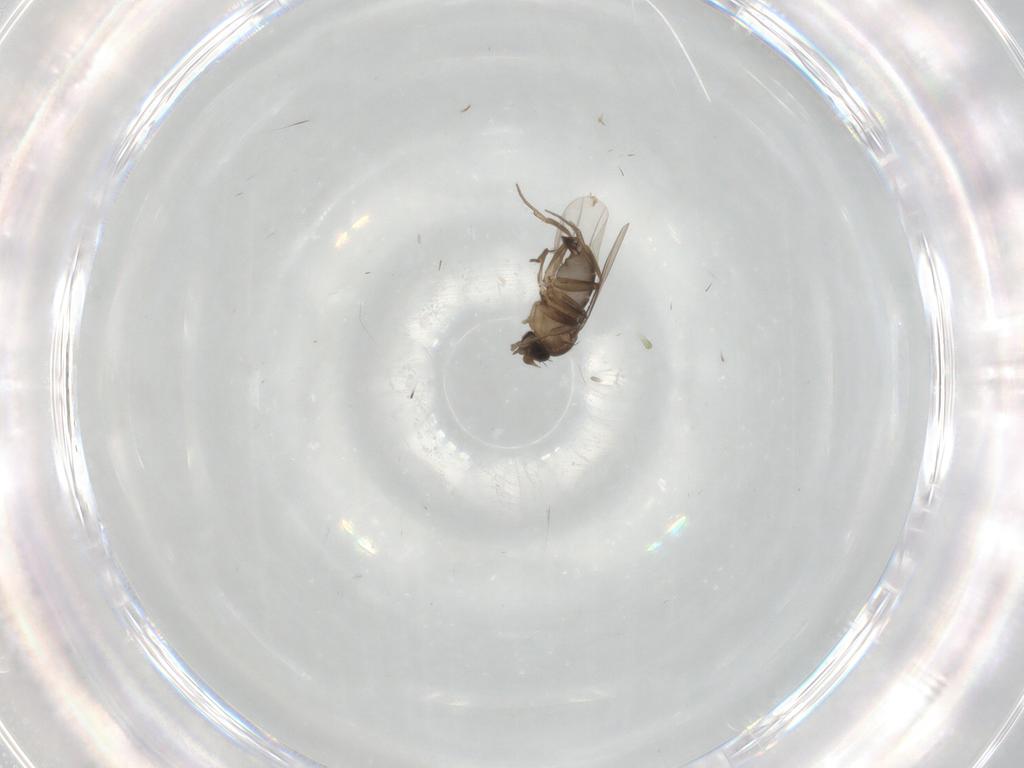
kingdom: Animalia
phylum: Arthropoda
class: Insecta
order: Diptera
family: Phoridae
